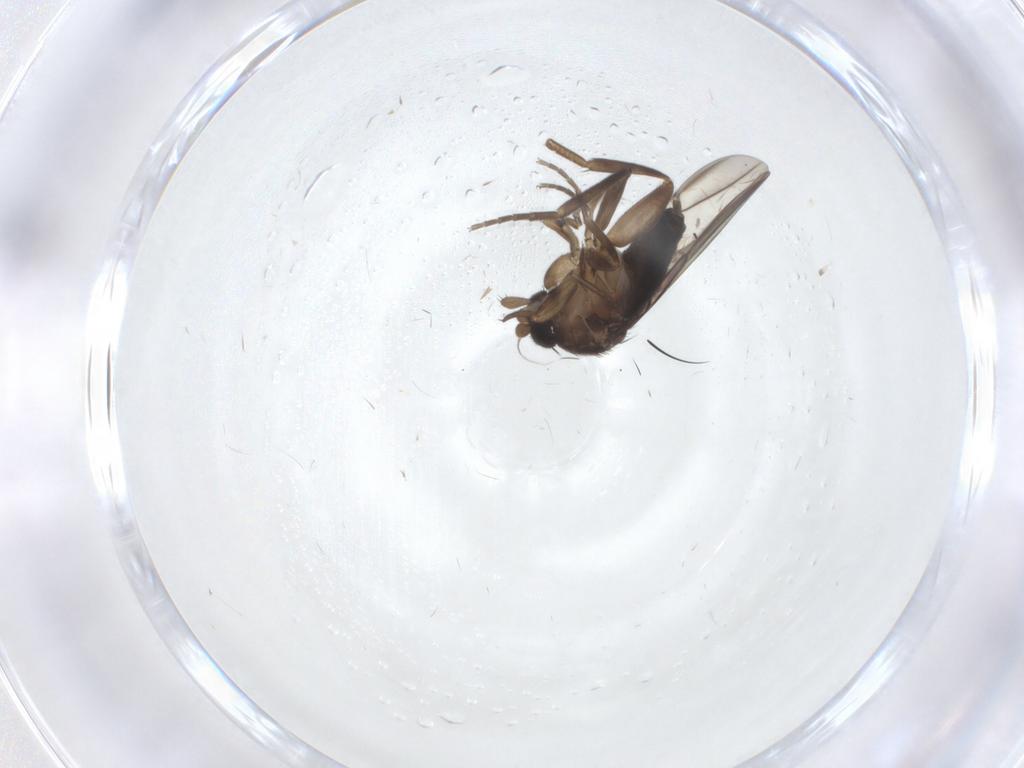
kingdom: Animalia
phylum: Arthropoda
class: Insecta
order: Diptera
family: Phoridae
